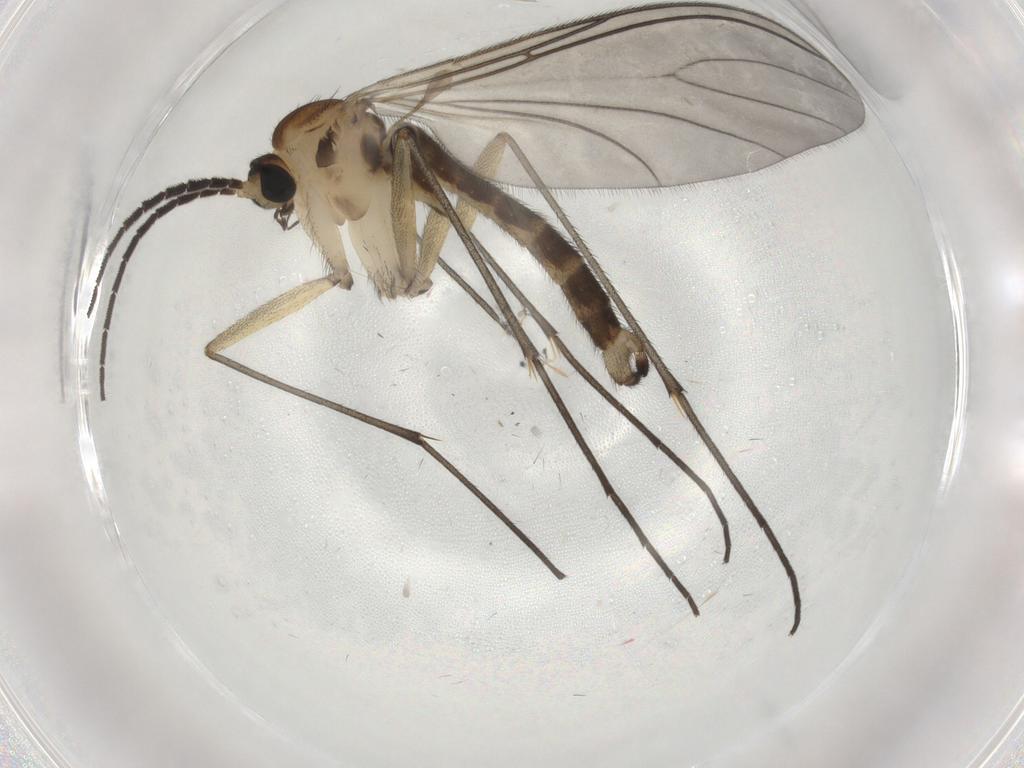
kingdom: Animalia
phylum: Arthropoda
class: Insecta
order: Diptera
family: Sciaridae
